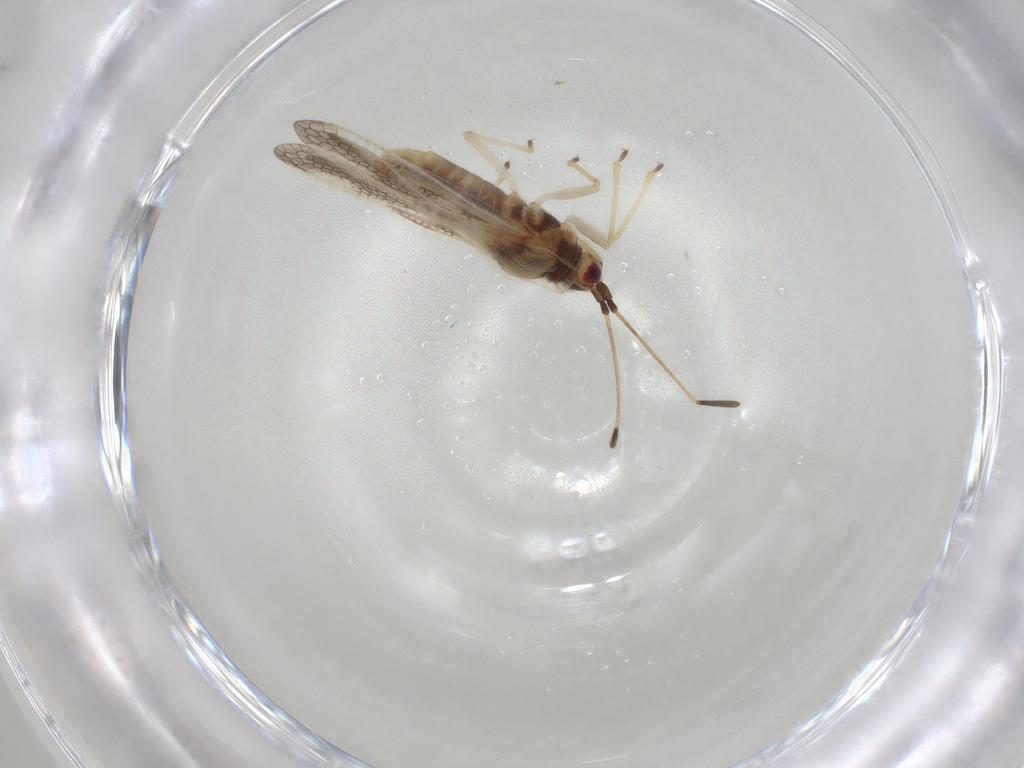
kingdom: Animalia
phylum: Arthropoda
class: Insecta
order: Hemiptera
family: Tingidae
